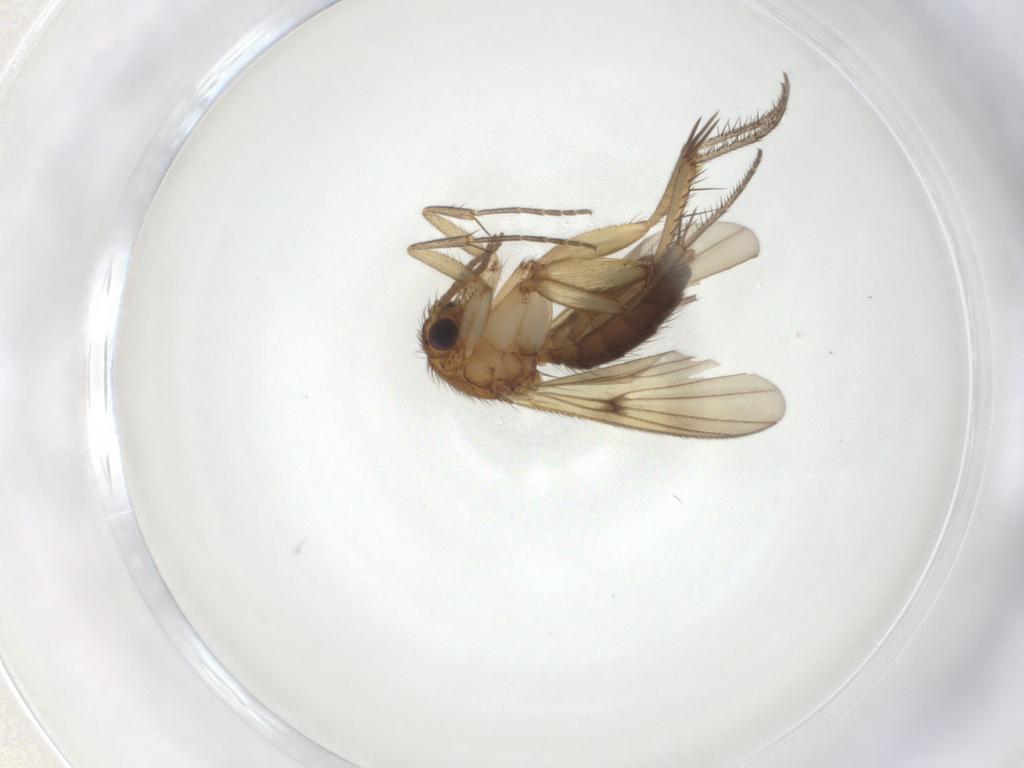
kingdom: Animalia
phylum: Arthropoda
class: Insecta
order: Diptera
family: Mycetophilidae
